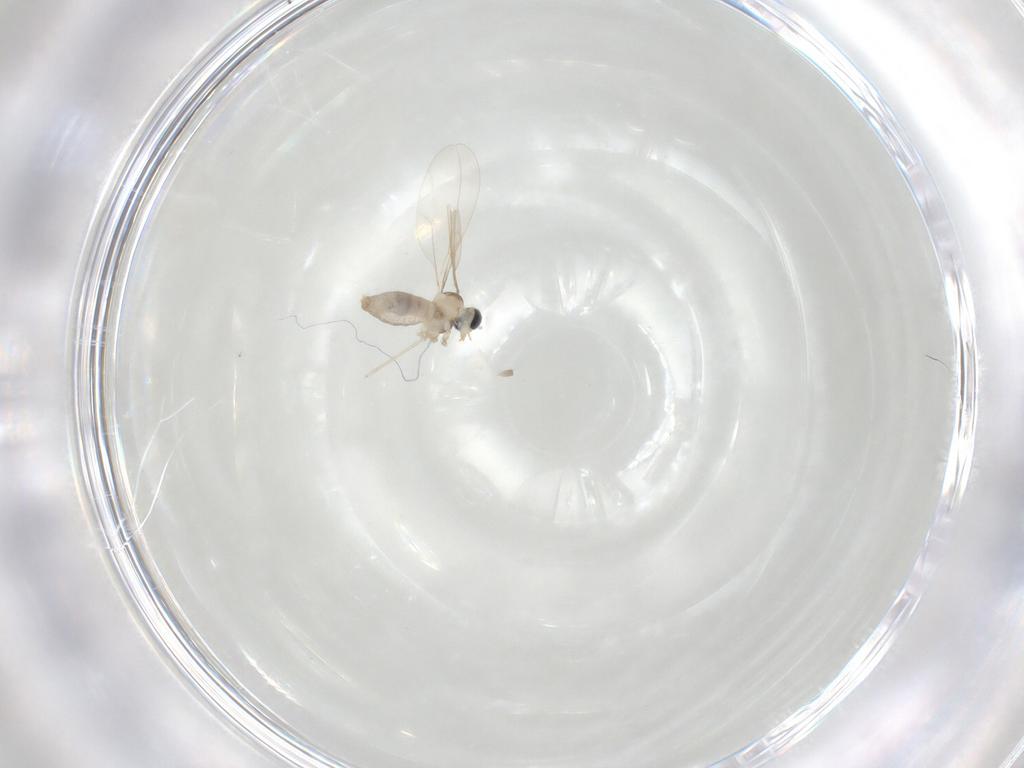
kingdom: Animalia
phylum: Arthropoda
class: Insecta
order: Diptera
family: Cecidomyiidae
